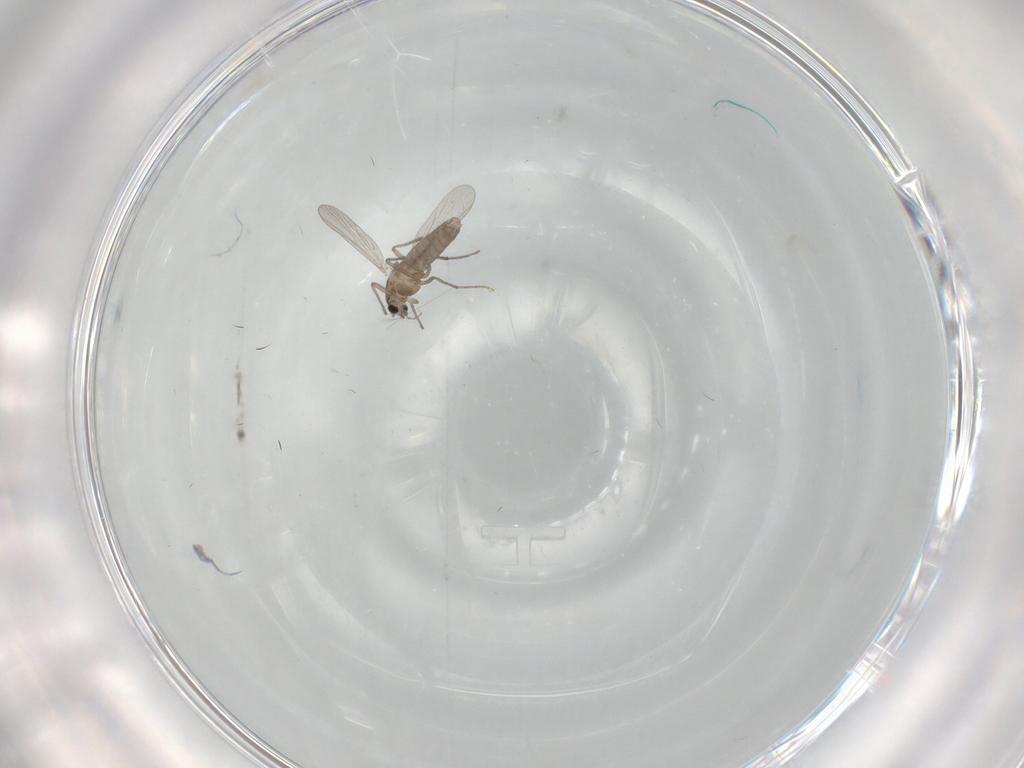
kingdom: Animalia
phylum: Arthropoda
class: Insecta
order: Diptera
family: Chironomidae
